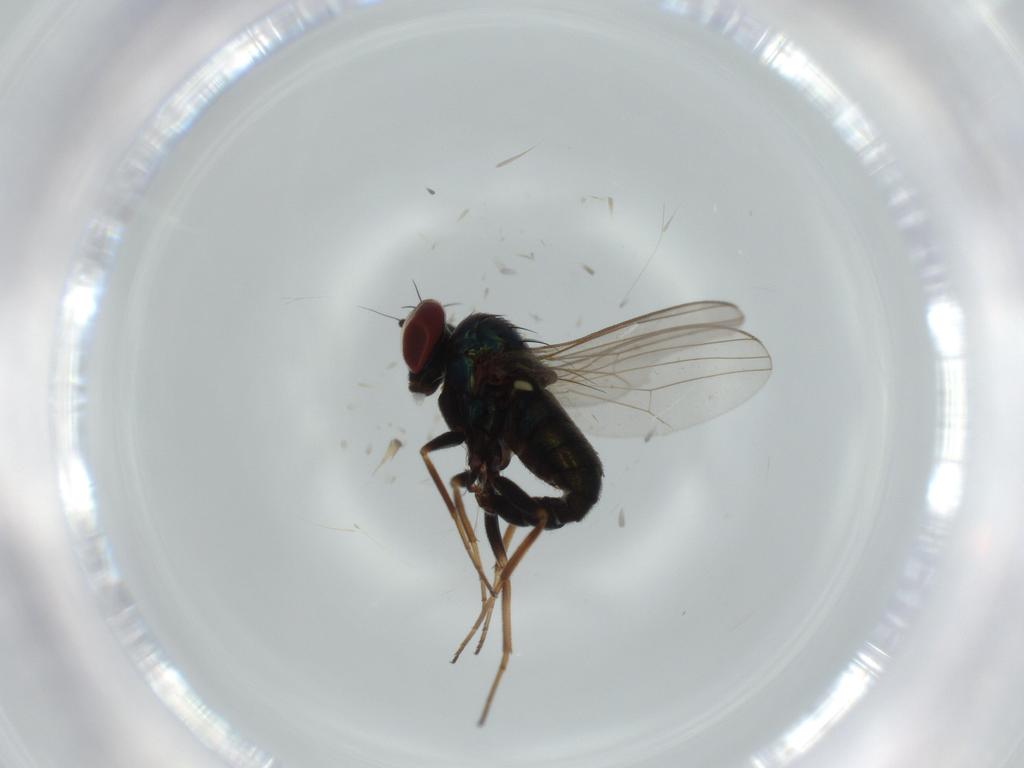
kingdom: Animalia
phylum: Arthropoda
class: Insecta
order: Diptera
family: Dolichopodidae
